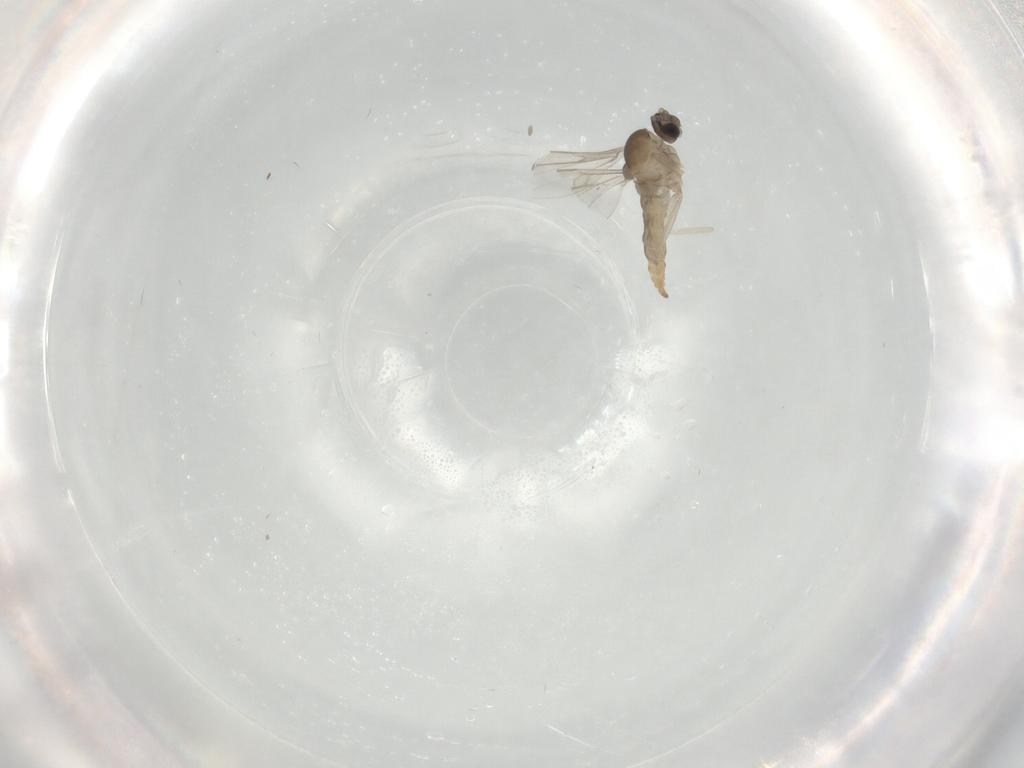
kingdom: Animalia
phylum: Arthropoda
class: Insecta
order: Diptera
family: Cecidomyiidae
